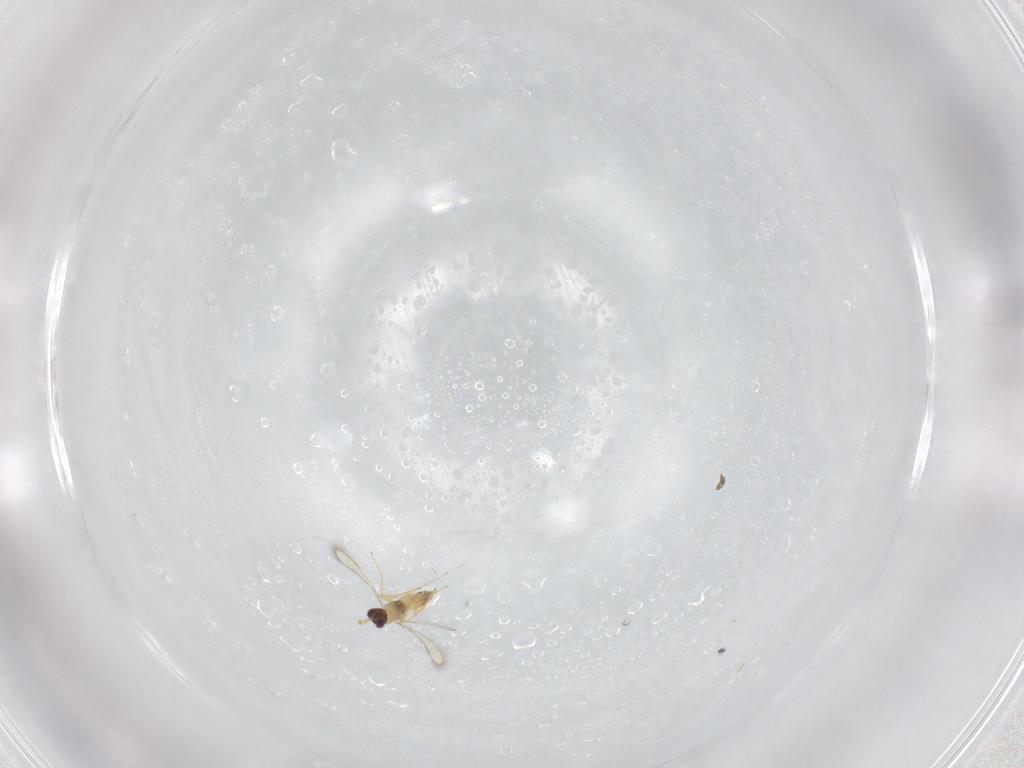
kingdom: Animalia
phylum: Arthropoda
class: Insecta
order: Hymenoptera
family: Mymaridae
